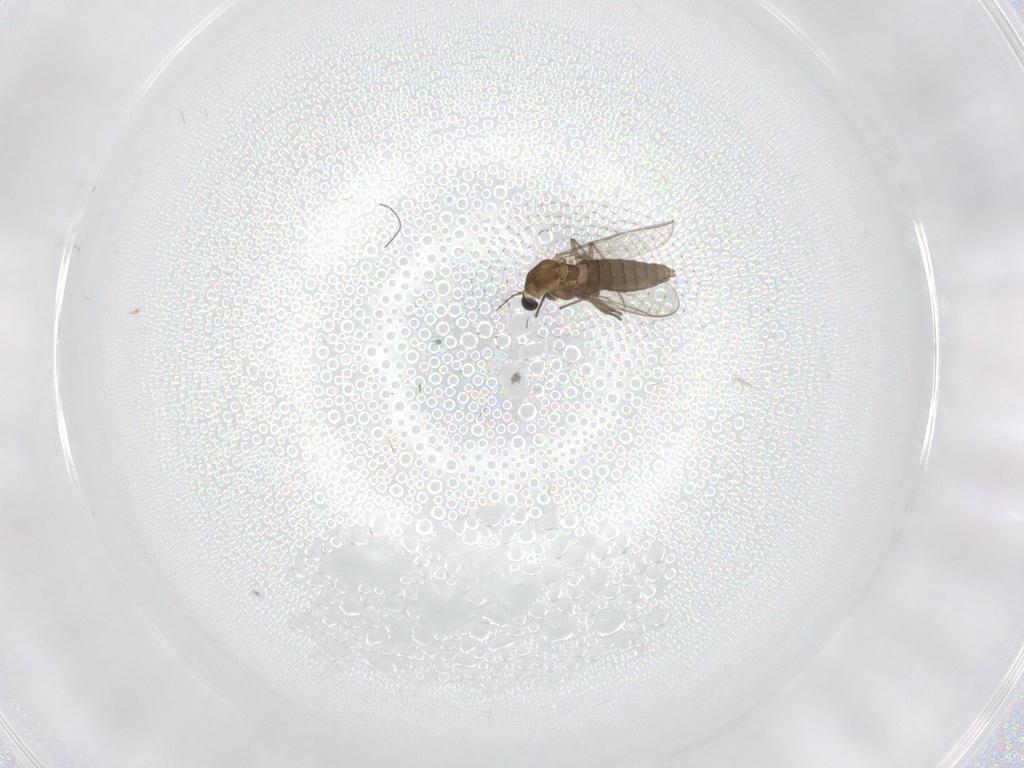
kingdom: Animalia
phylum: Arthropoda
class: Insecta
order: Diptera
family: Chironomidae
